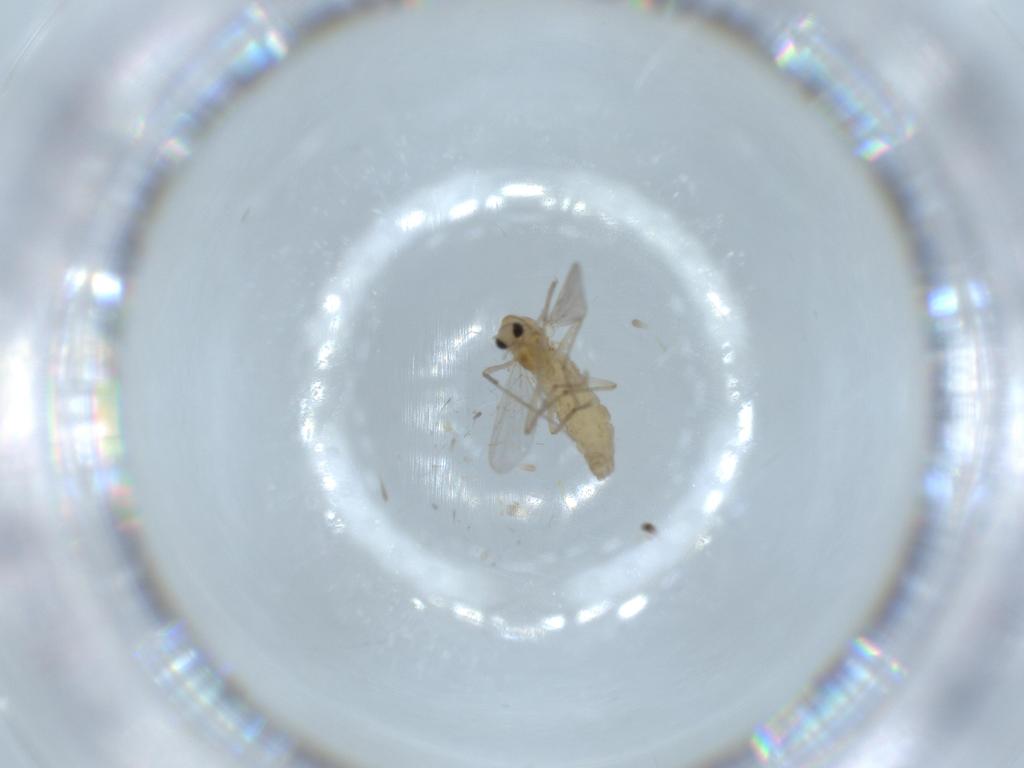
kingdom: Animalia
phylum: Arthropoda
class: Insecta
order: Diptera
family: Chironomidae
